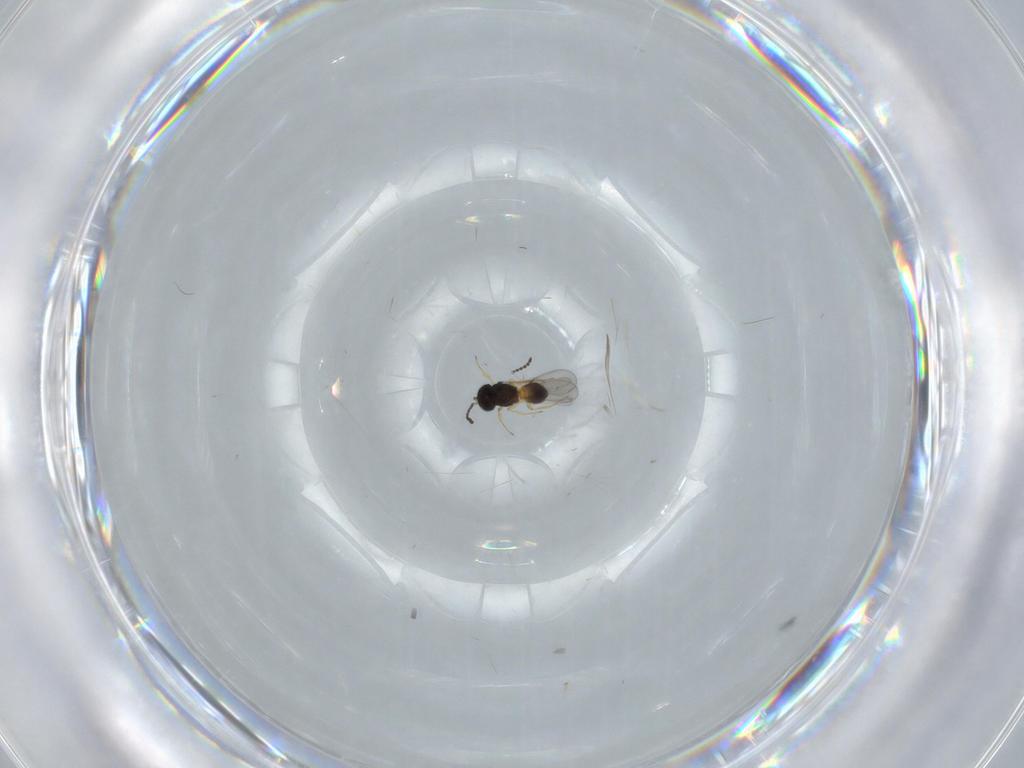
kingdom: Animalia
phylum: Arthropoda
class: Insecta
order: Hymenoptera
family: Scelionidae
